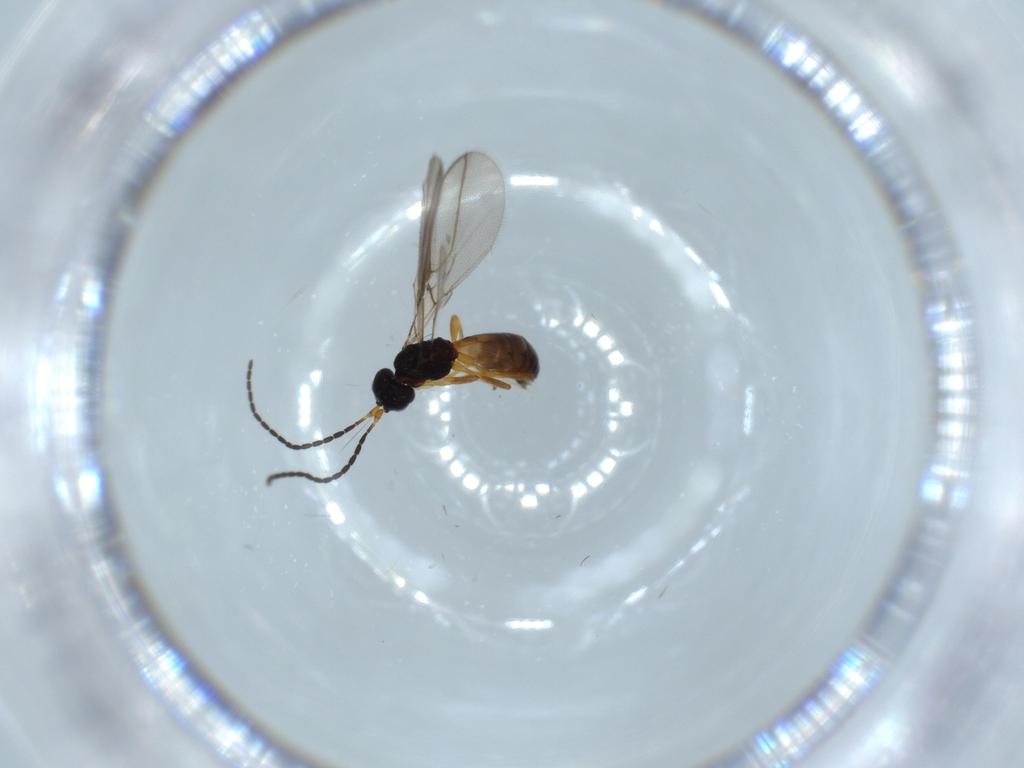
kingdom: Animalia
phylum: Arthropoda
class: Insecta
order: Hymenoptera
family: Braconidae
